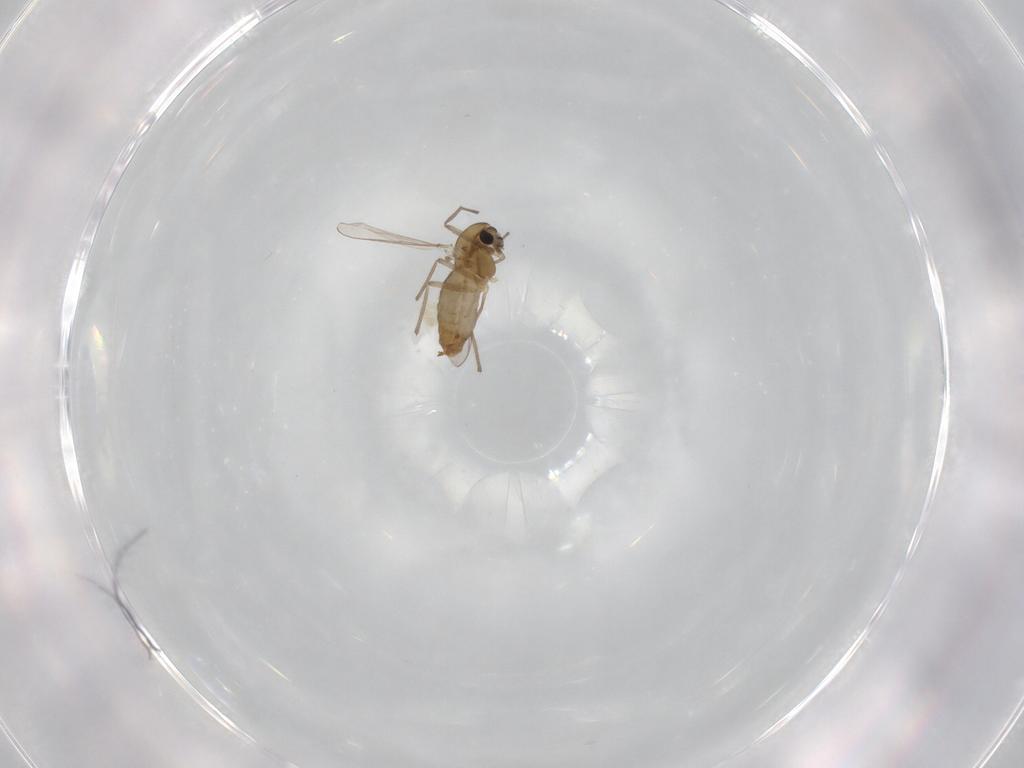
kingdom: Animalia
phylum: Arthropoda
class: Insecta
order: Diptera
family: Chironomidae
